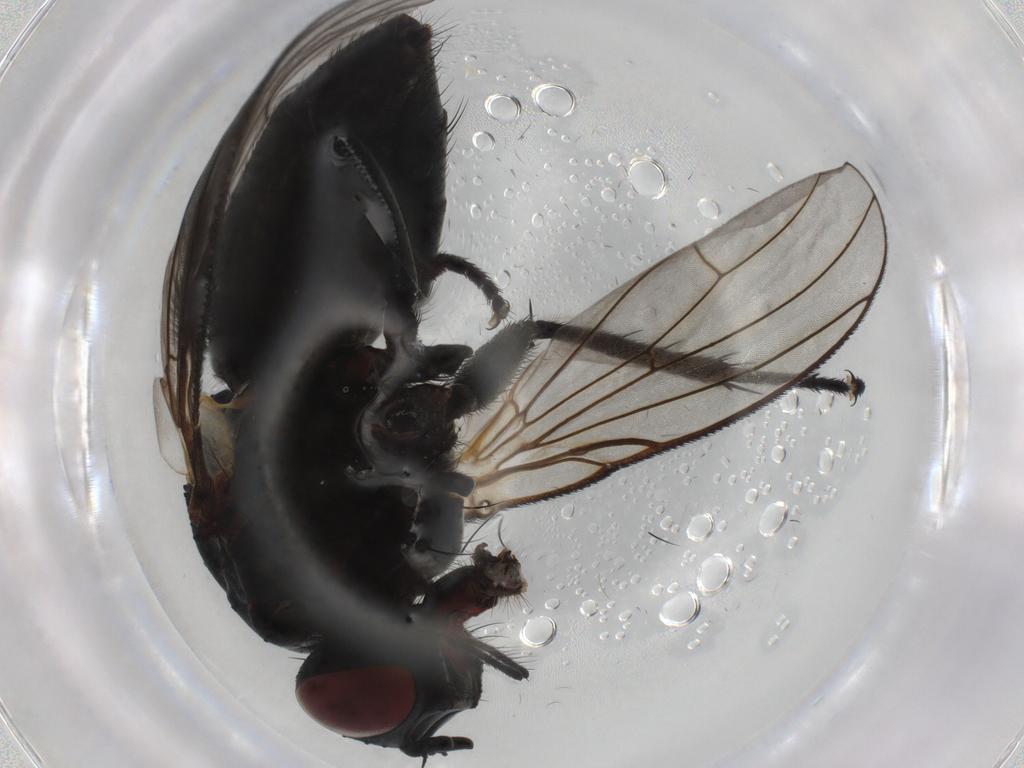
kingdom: Animalia
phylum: Arthropoda
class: Insecta
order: Diptera
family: Muscidae
